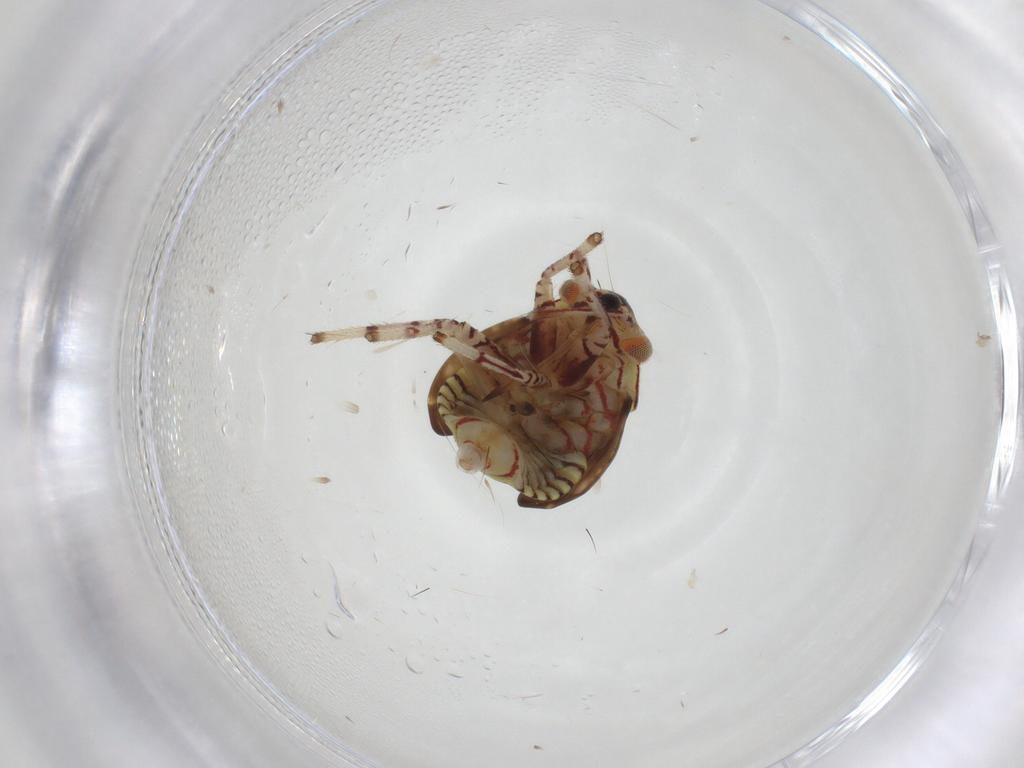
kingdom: Animalia
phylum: Arthropoda
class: Insecta
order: Hemiptera
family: Miridae
